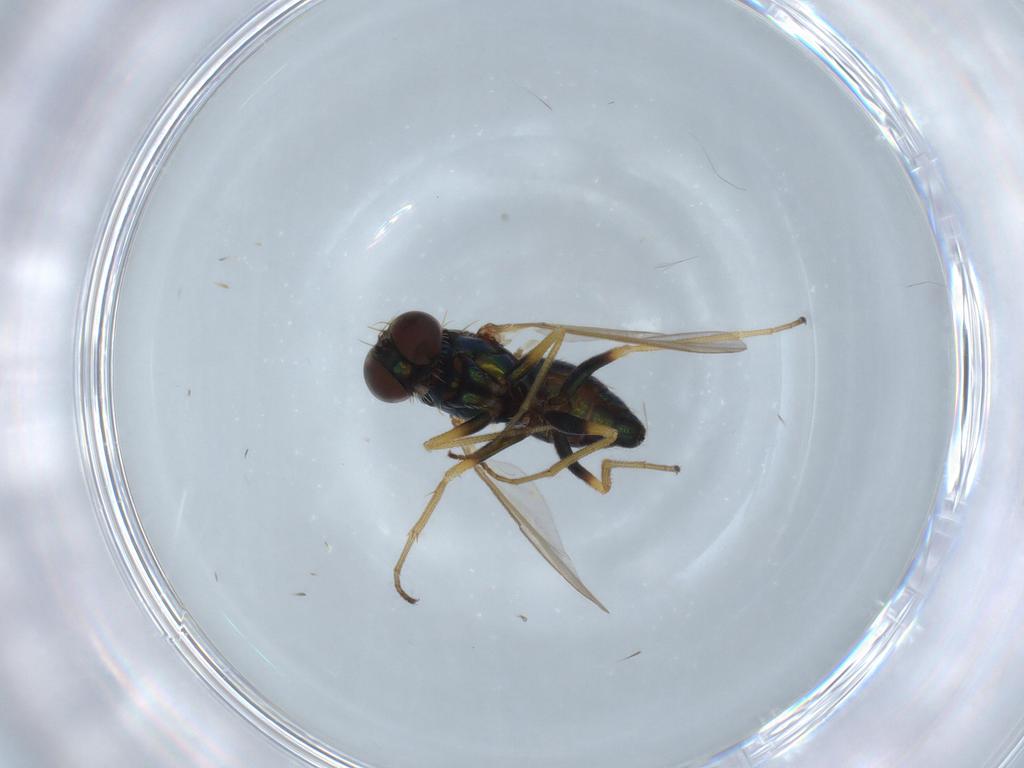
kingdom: Animalia
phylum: Arthropoda
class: Insecta
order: Diptera
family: Dolichopodidae
